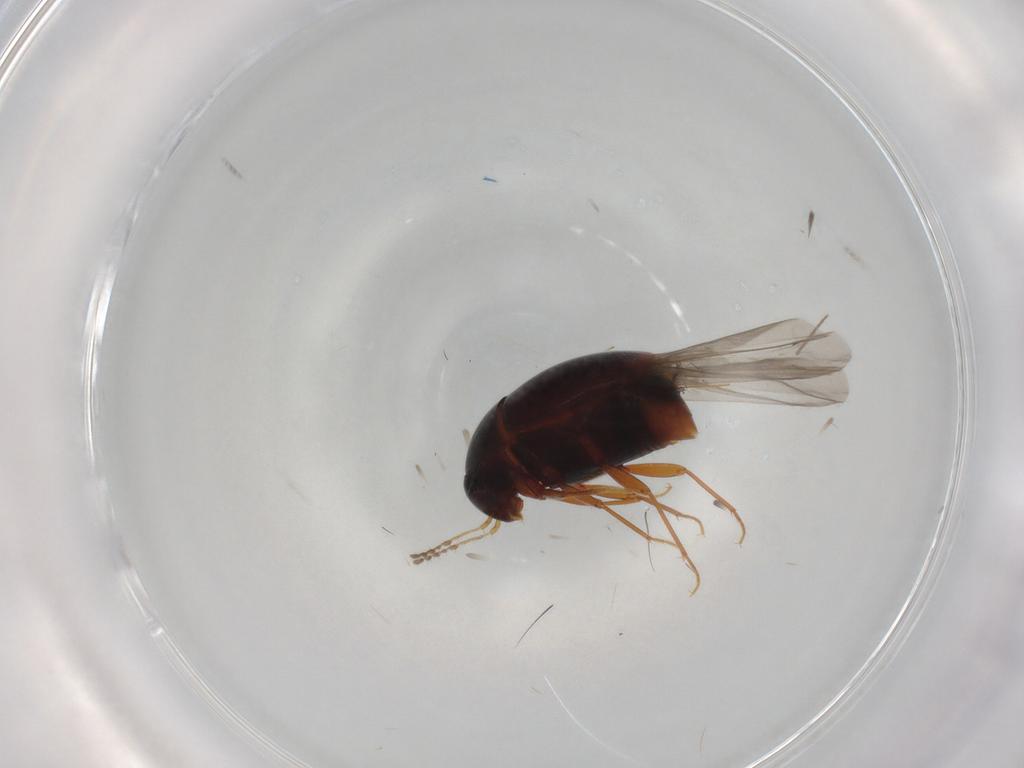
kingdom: Animalia
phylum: Arthropoda
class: Insecta
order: Coleoptera
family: Staphylinidae
